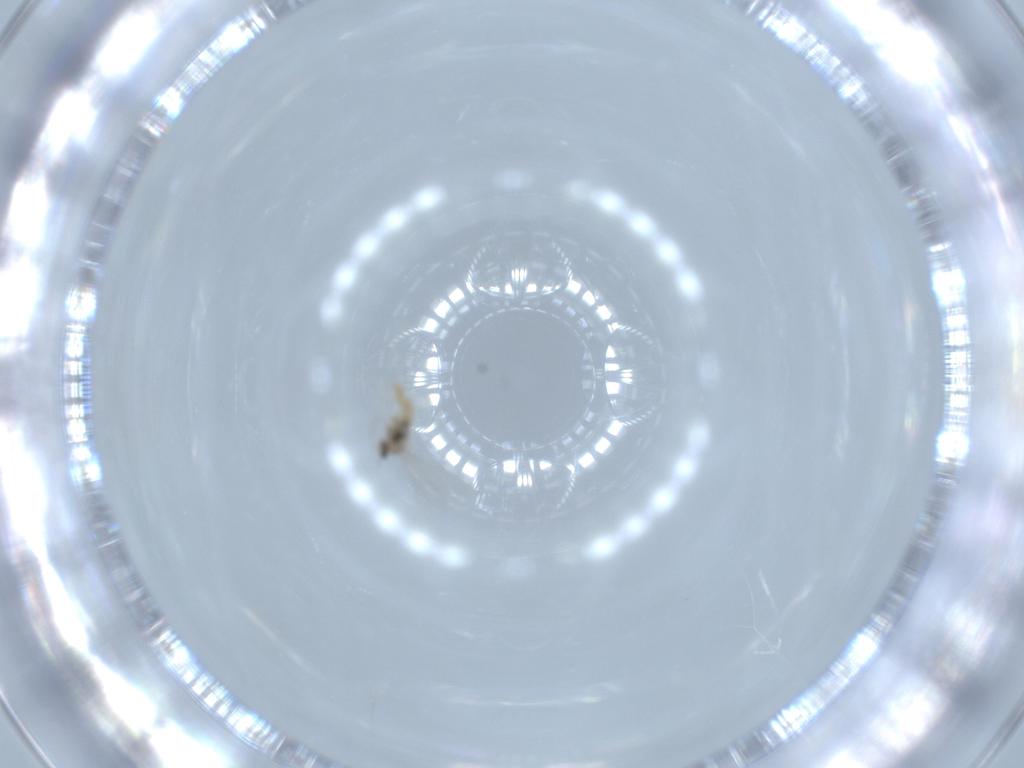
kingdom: Animalia
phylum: Arthropoda
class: Insecta
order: Diptera
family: Cecidomyiidae
